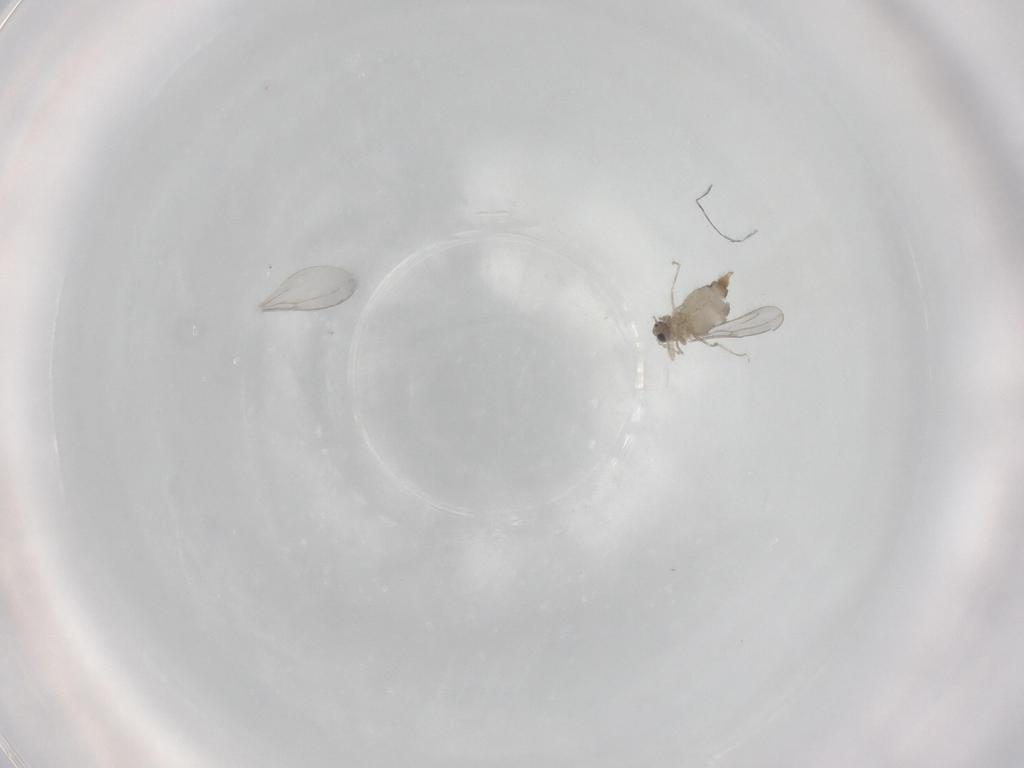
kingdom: Animalia
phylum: Arthropoda
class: Insecta
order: Diptera
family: Cecidomyiidae
